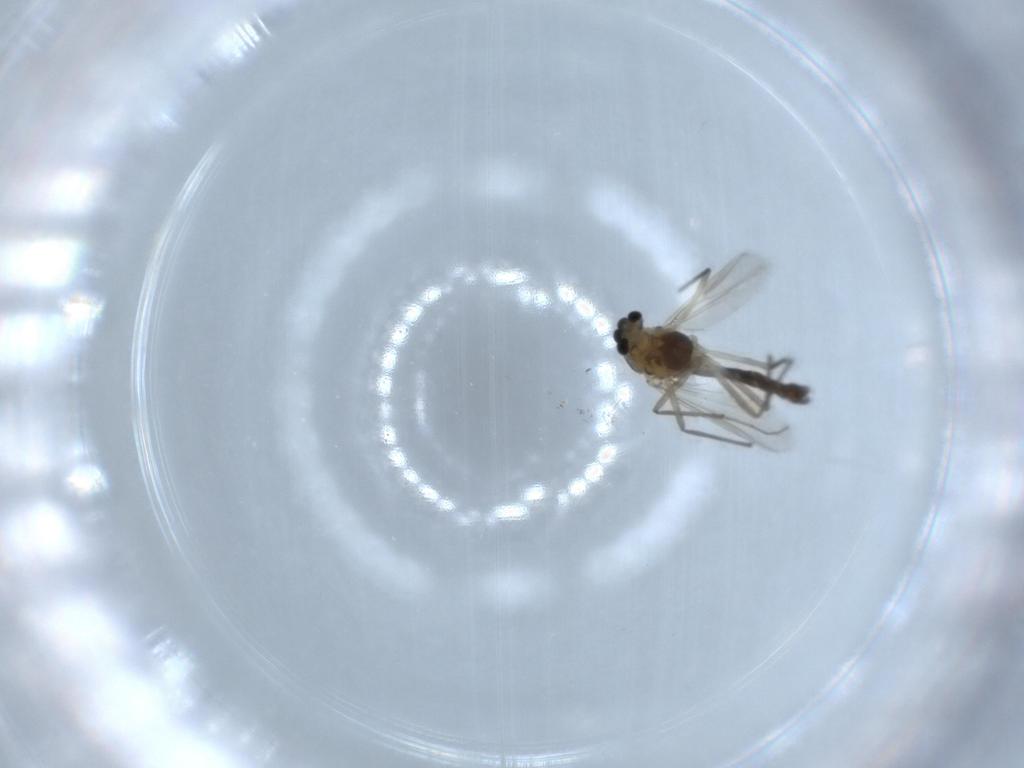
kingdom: Animalia
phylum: Arthropoda
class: Insecta
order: Diptera
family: Chironomidae
